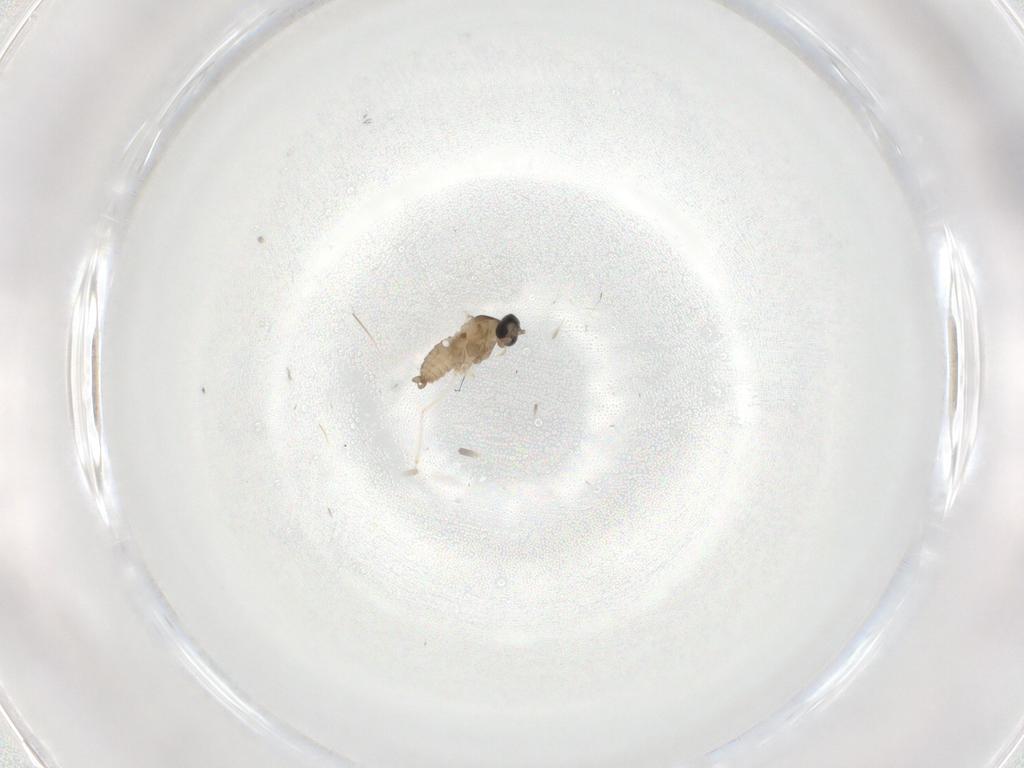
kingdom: Animalia
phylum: Arthropoda
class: Insecta
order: Diptera
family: Cecidomyiidae
